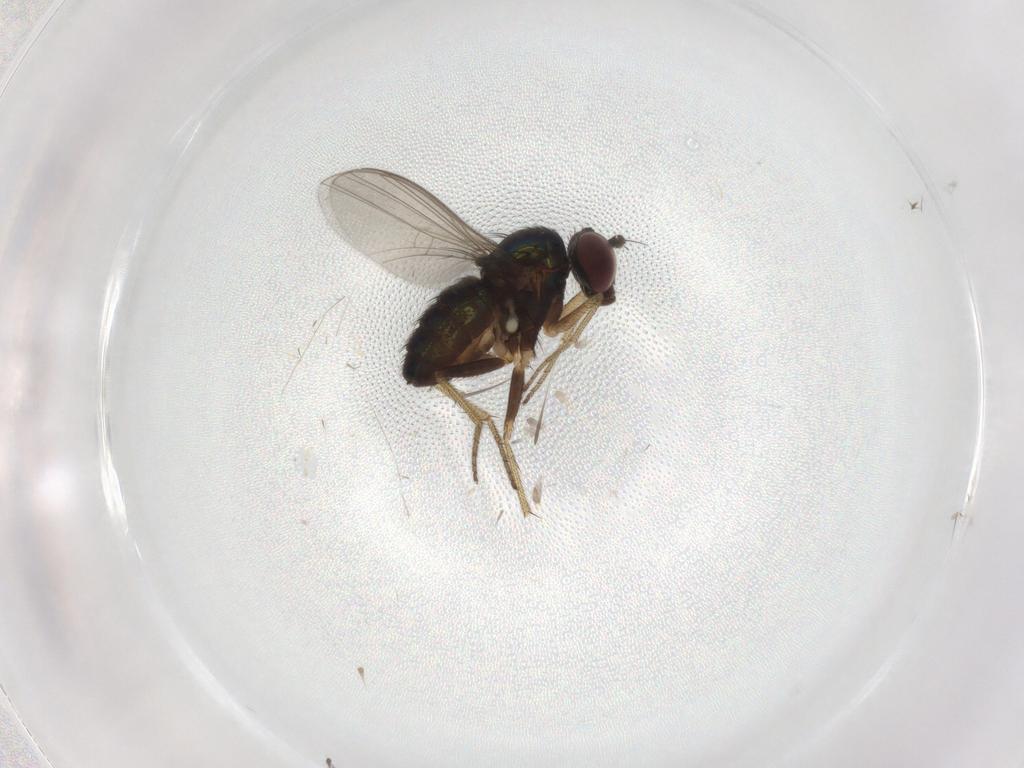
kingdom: Animalia
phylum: Arthropoda
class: Insecta
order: Diptera
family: Dolichopodidae
